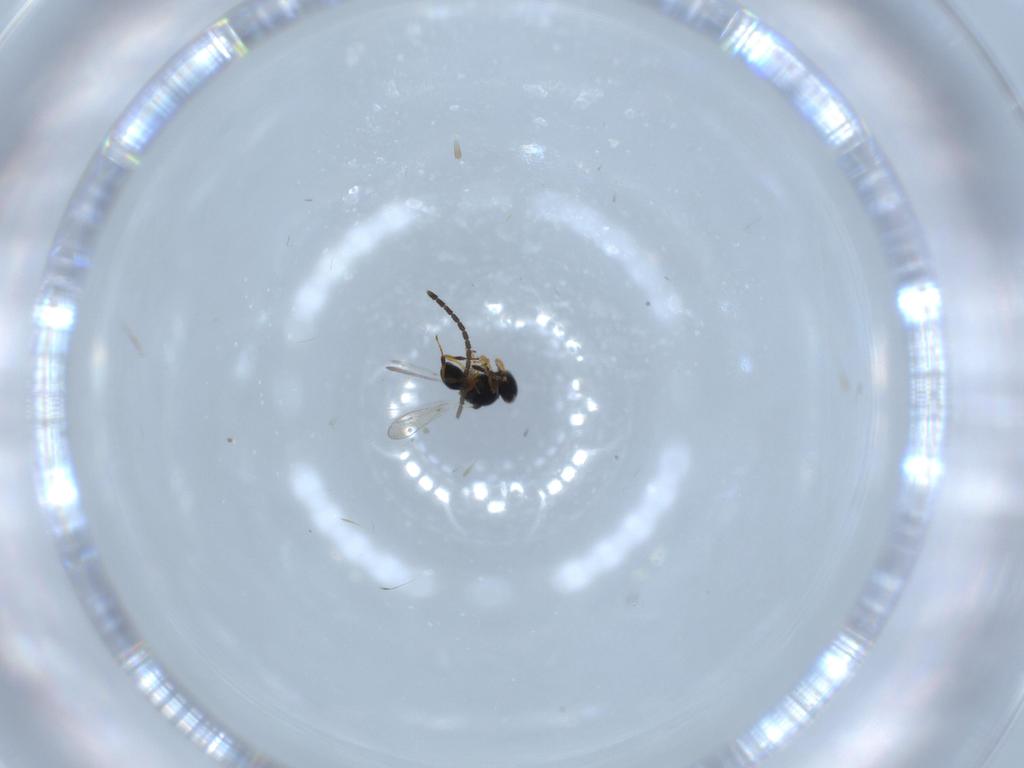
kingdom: Animalia
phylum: Arthropoda
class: Insecta
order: Hymenoptera
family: Platygastridae
